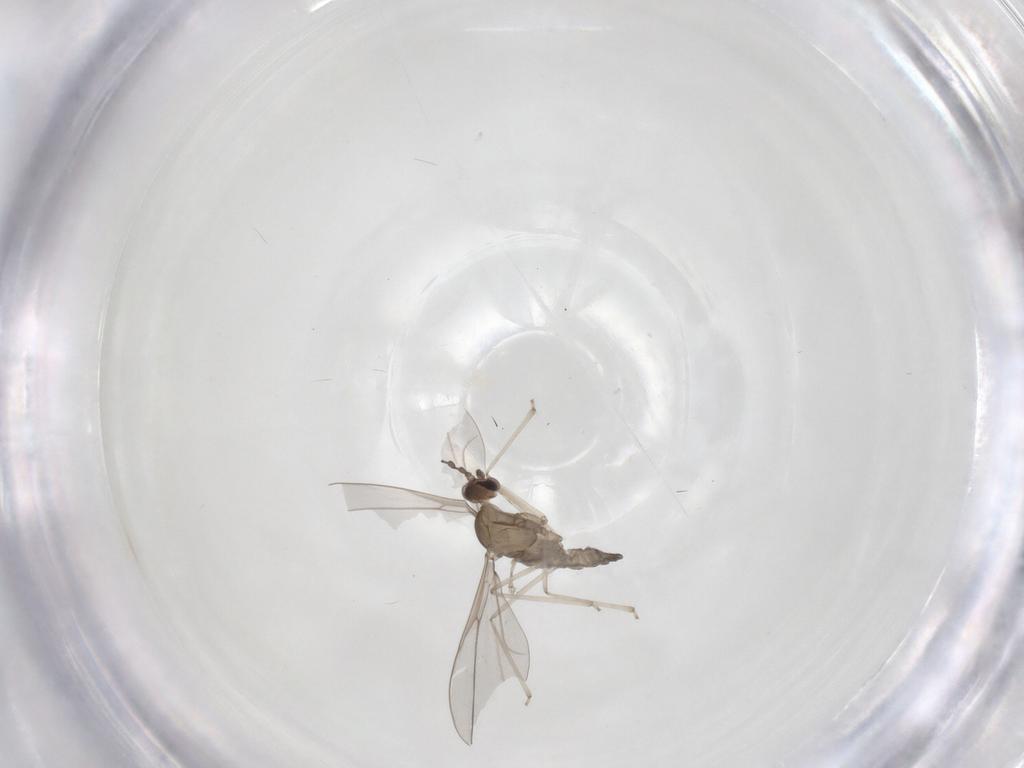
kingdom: Animalia
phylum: Arthropoda
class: Insecta
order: Diptera
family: Cecidomyiidae
